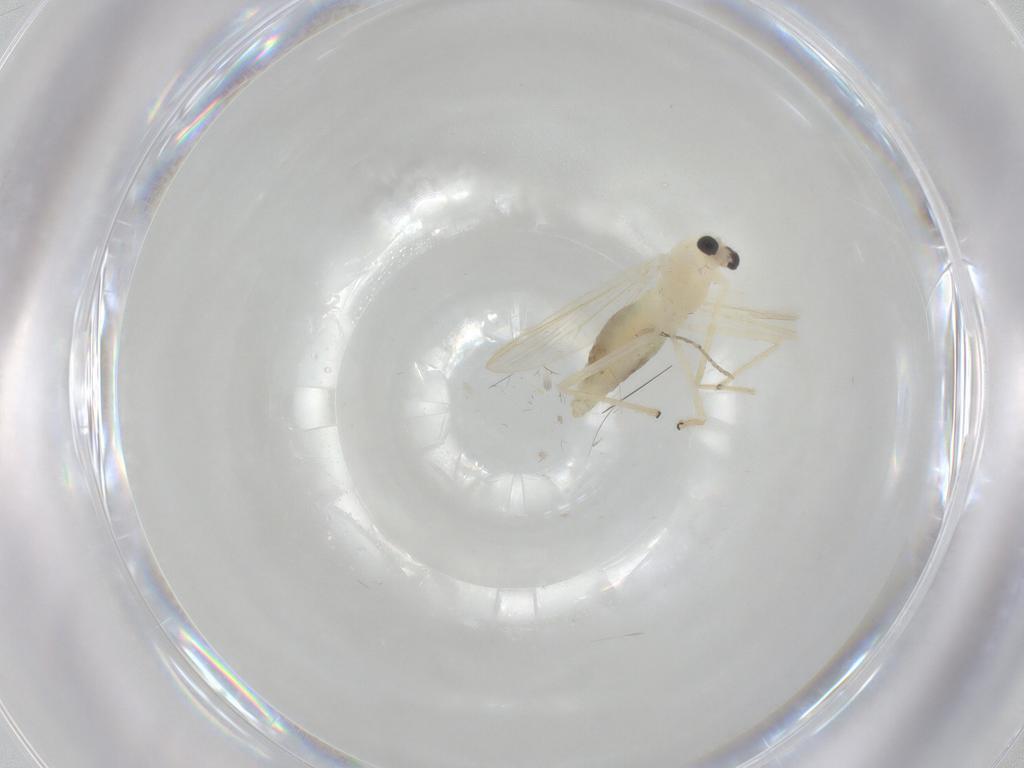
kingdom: Animalia
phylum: Arthropoda
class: Insecta
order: Diptera
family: Chironomidae
